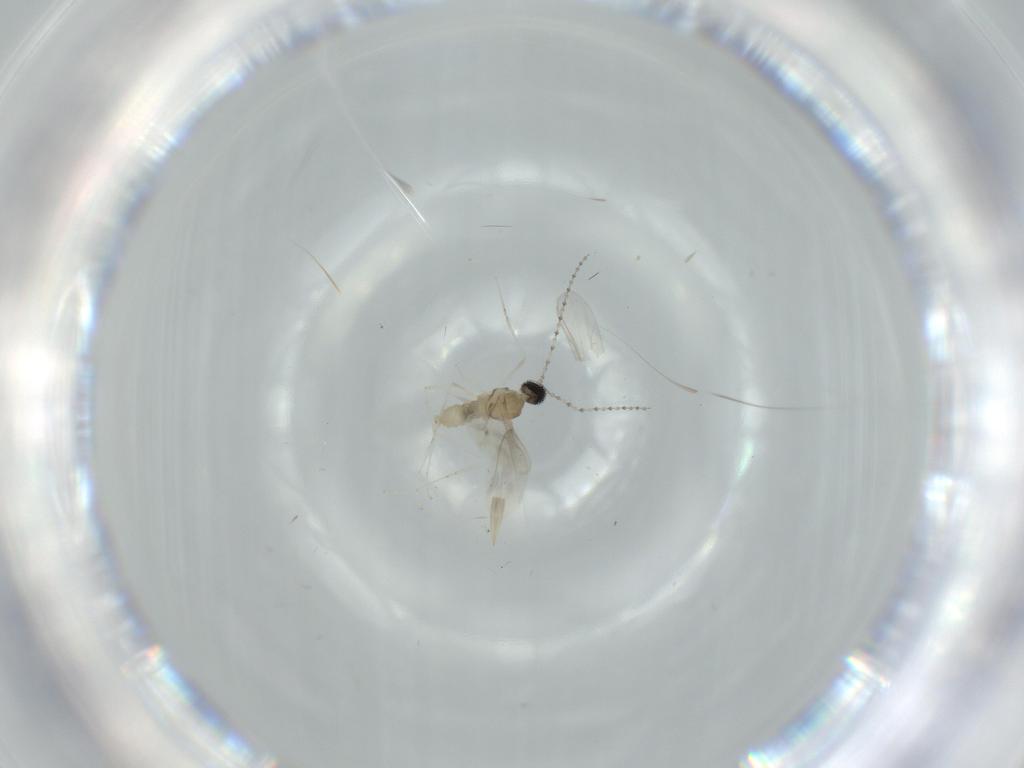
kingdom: Animalia
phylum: Arthropoda
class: Insecta
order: Diptera
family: Cecidomyiidae
